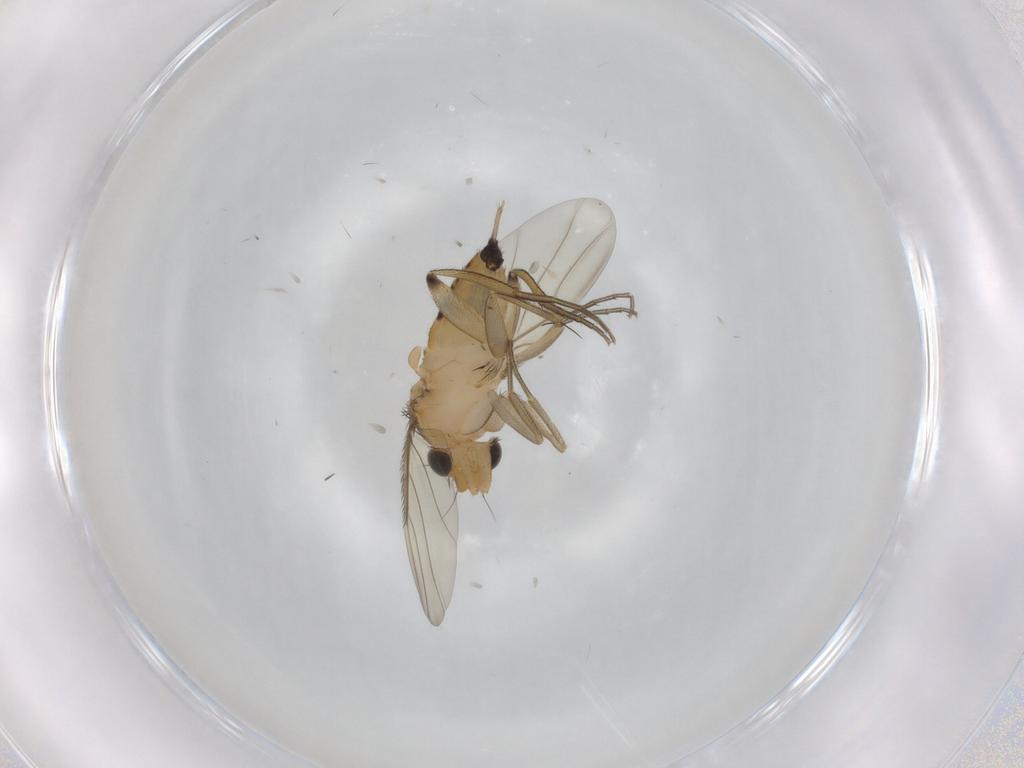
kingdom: Animalia
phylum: Arthropoda
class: Insecta
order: Diptera
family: Phoridae
